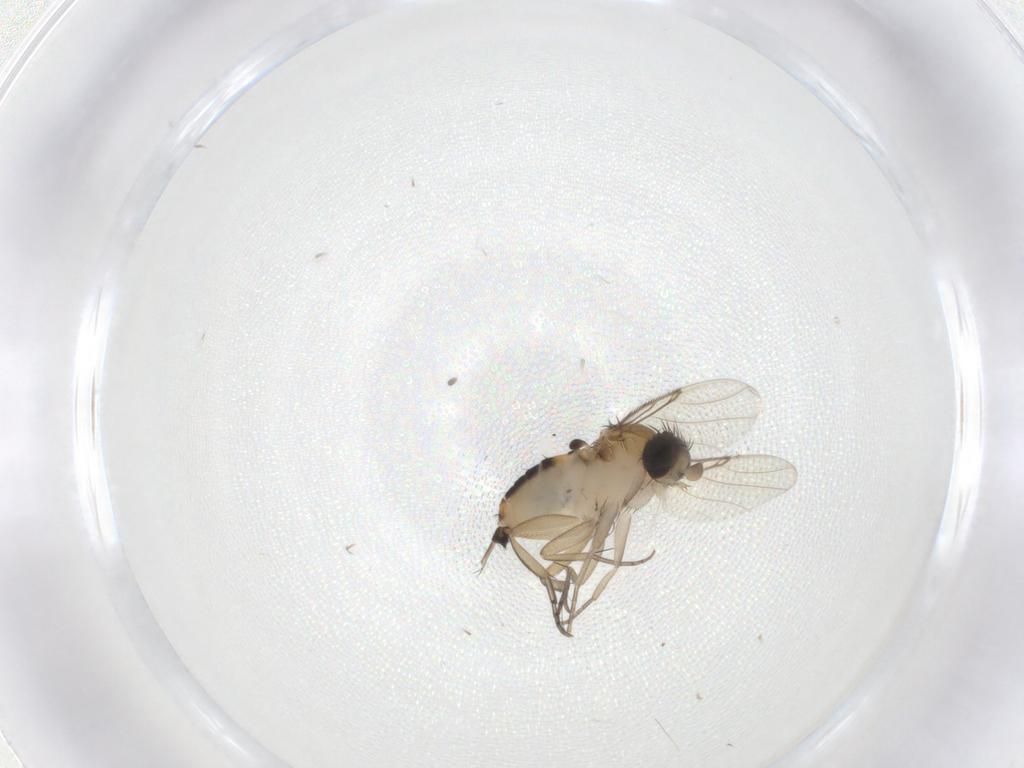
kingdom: Animalia
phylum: Arthropoda
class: Insecta
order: Diptera
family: Phoridae
